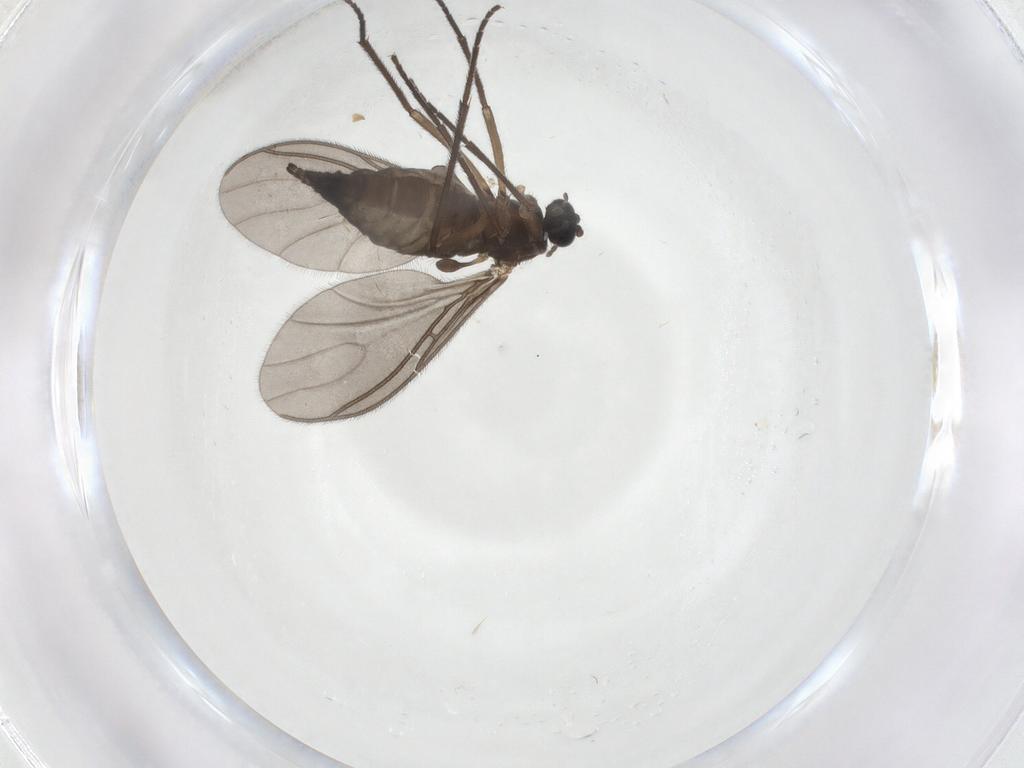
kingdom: Animalia
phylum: Arthropoda
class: Insecta
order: Diptera
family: Sciaridae
